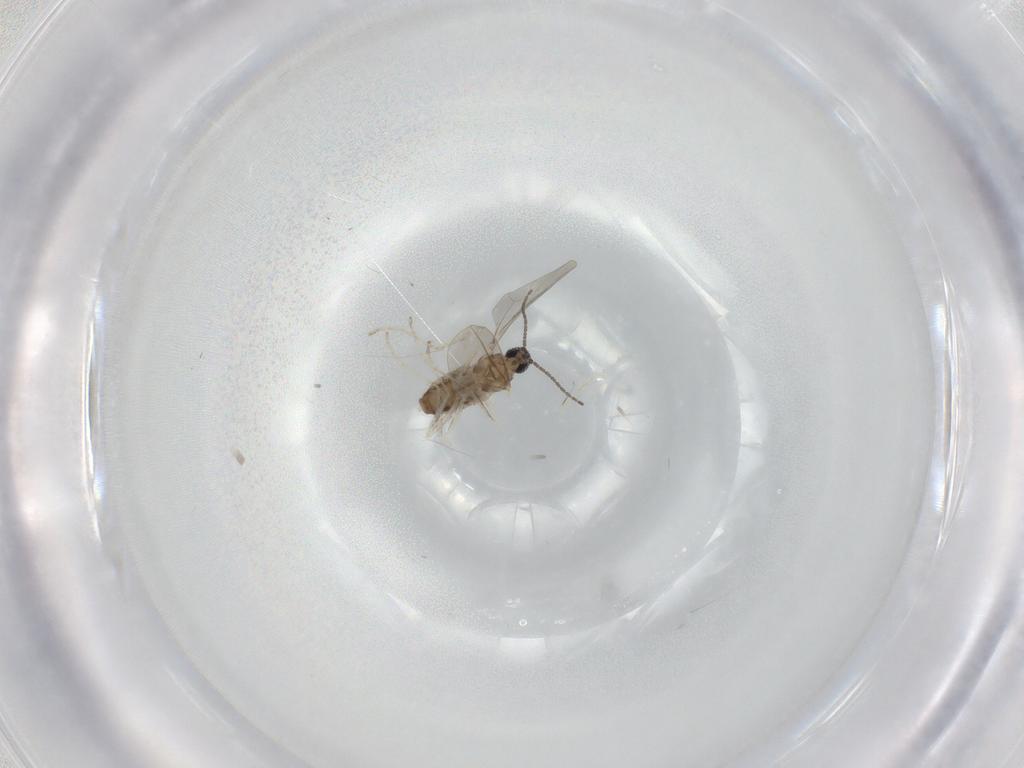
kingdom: Animalia
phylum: Arthropoda
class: Insecta
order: Diptera
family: Cecidomyiidae
